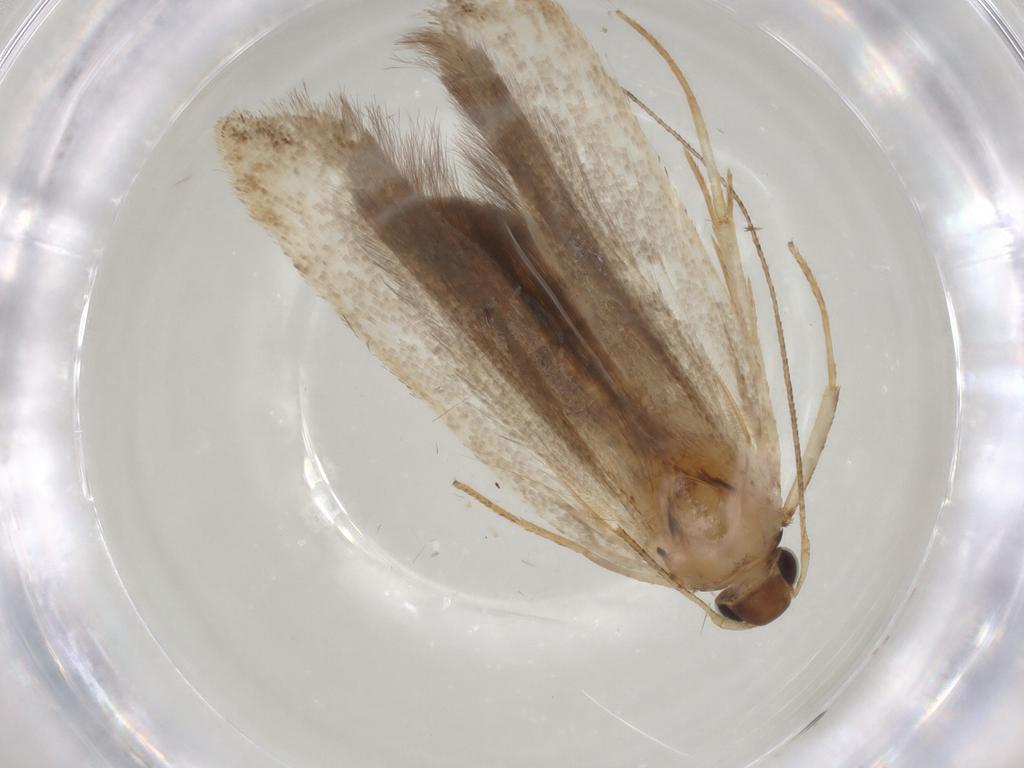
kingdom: Animalia
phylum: Arthropoda
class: Insecta
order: Lepidoptera
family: Gelechiidae
